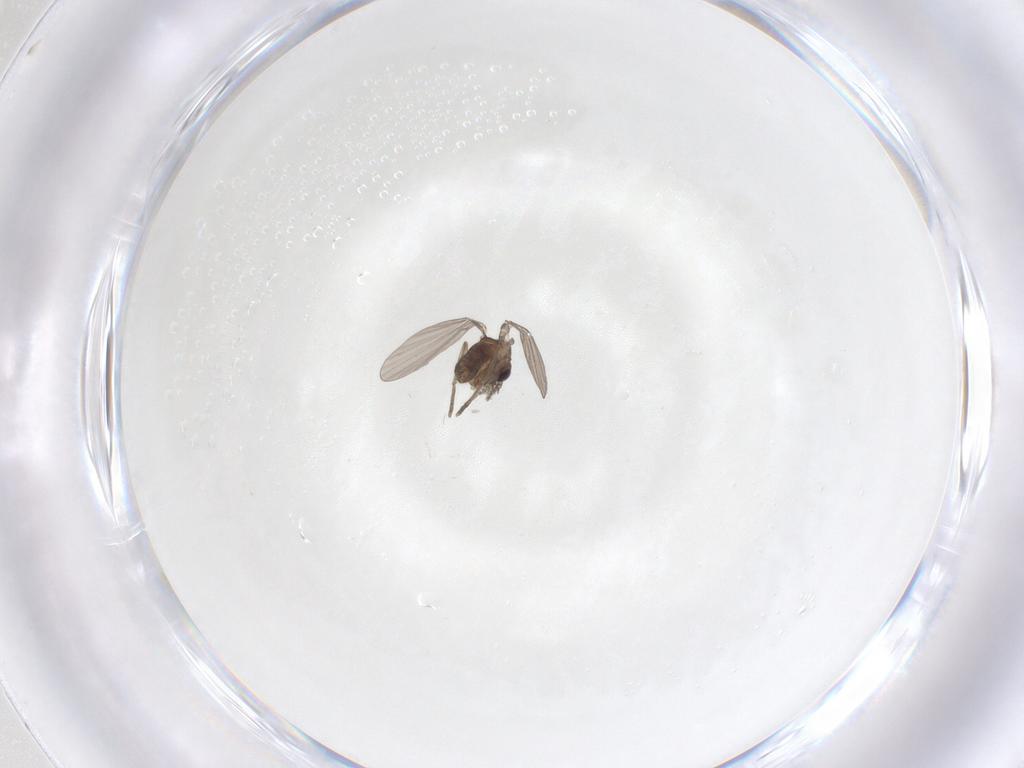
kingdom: Animalia
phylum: Arthropoda
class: Insecta
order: Diptera
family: Psychodidae
